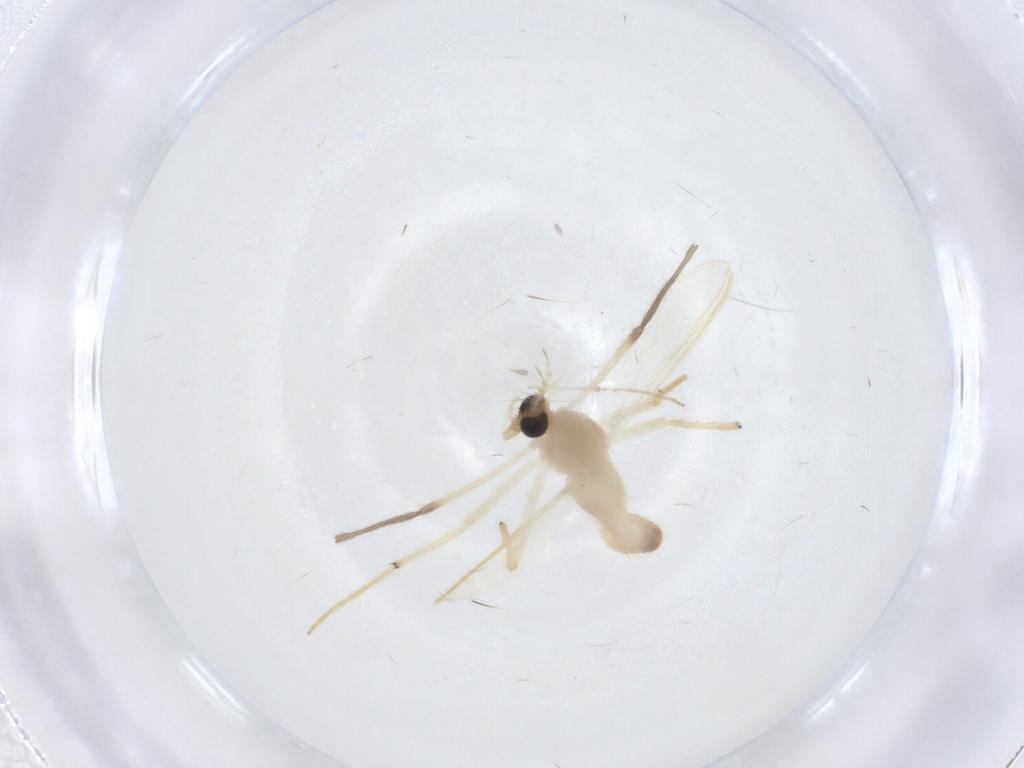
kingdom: Animalia
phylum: Arthropoda
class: Insecta
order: Diptera
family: Chironomidae
